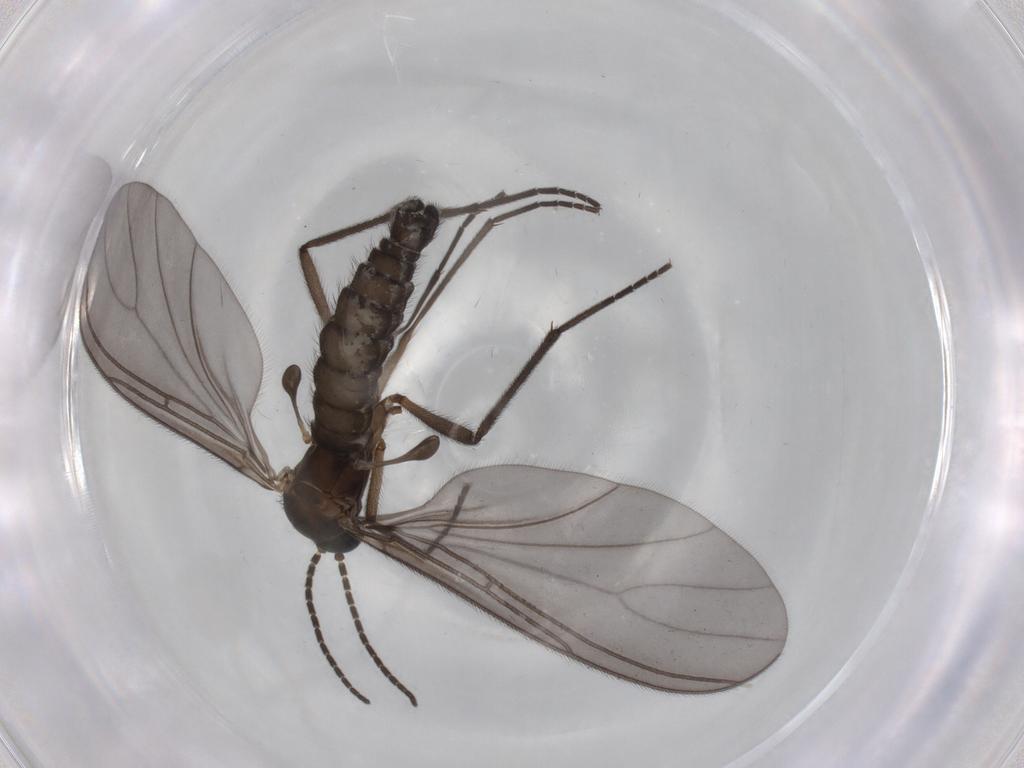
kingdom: Animalia
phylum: Arthropoda
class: Insecta
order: Diptera
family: Sciaridae
